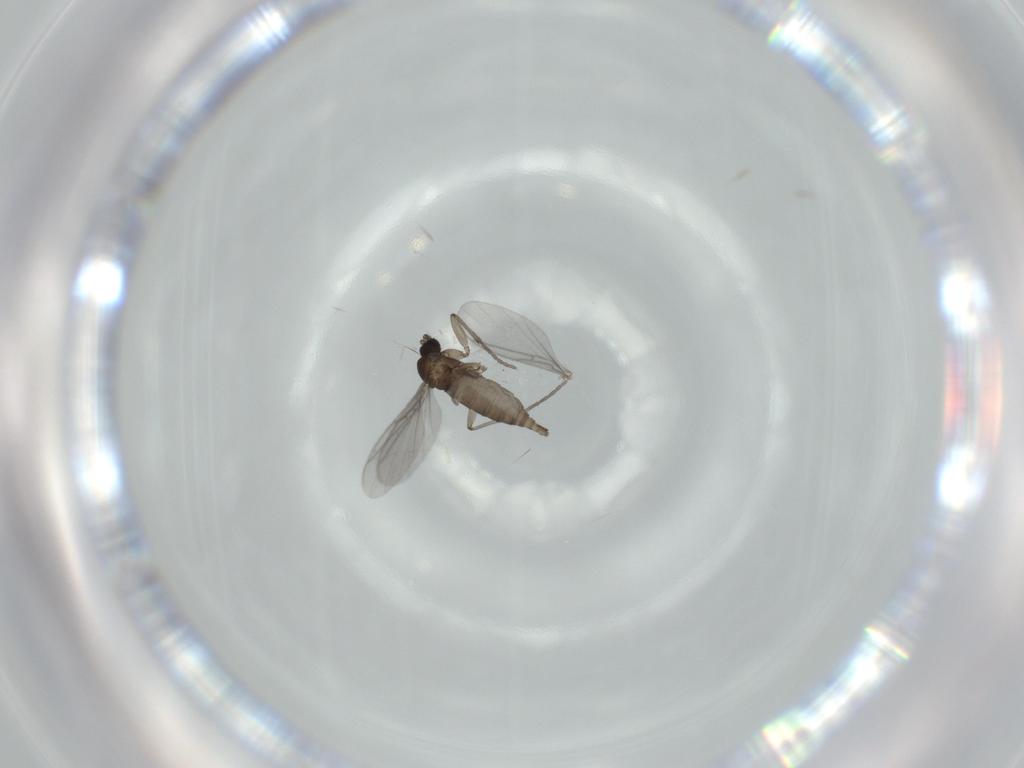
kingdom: Animalia
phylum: Arthropoda
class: Insecta
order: Diptera
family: Sciaridae
